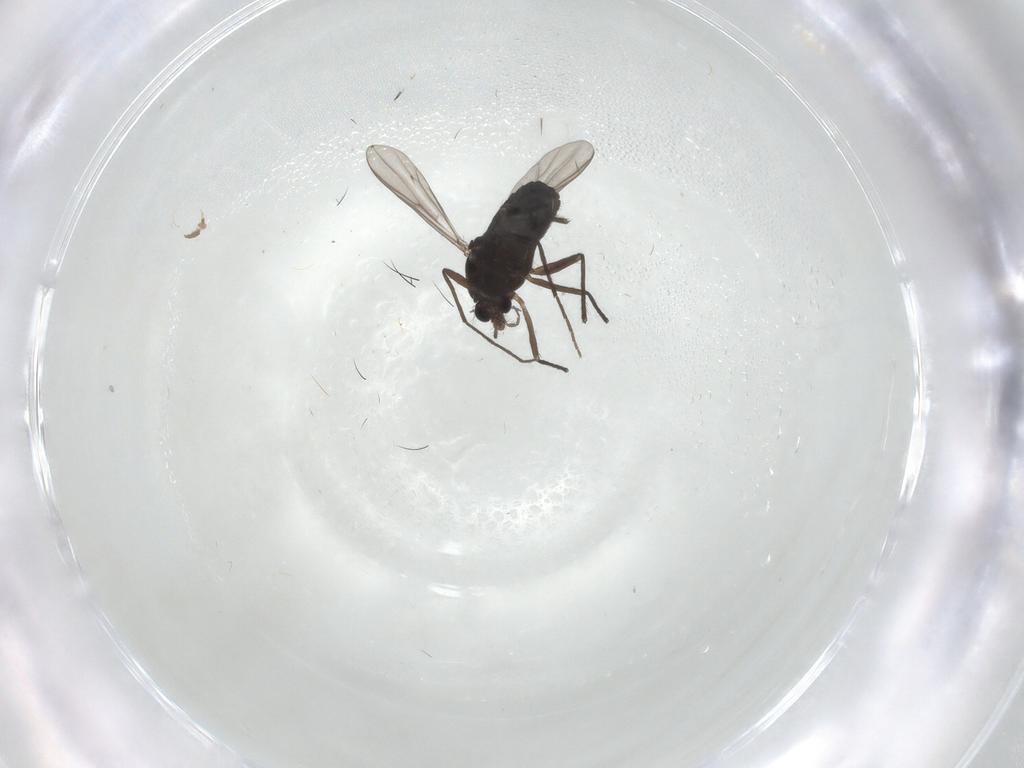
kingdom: Animalia
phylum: Arthropoda
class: Insecta
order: Diptera
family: Chironomidae
